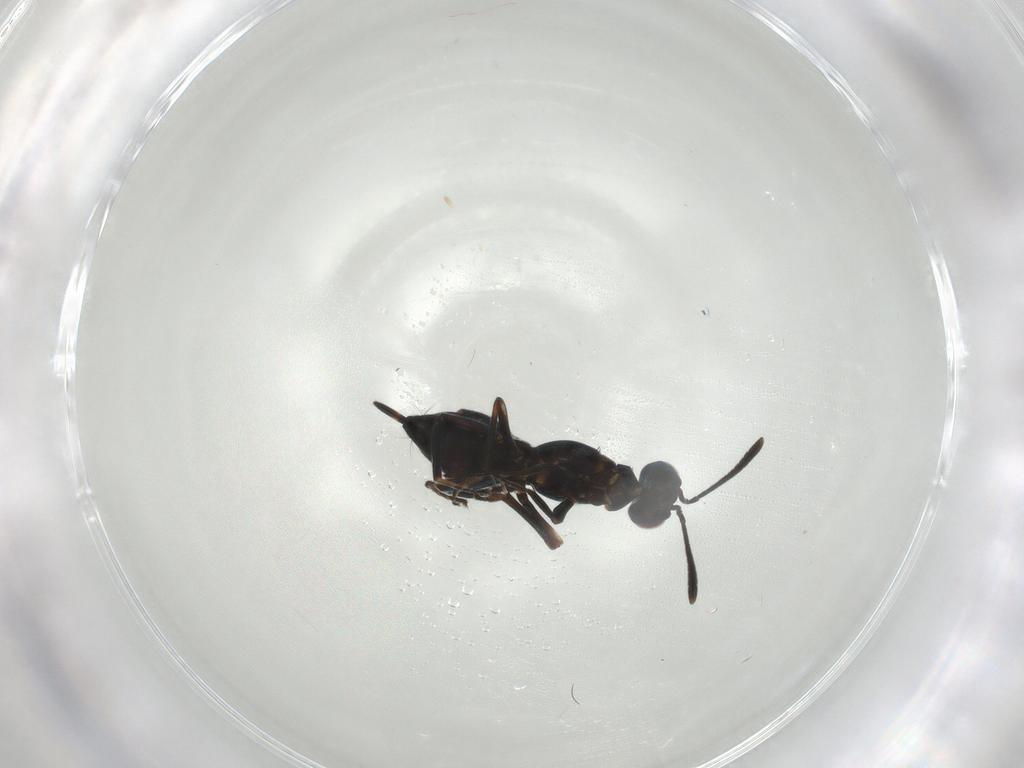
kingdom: Animalia
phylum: Arthropoda
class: Insecta
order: Hymenoptera
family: Eupelmidae
